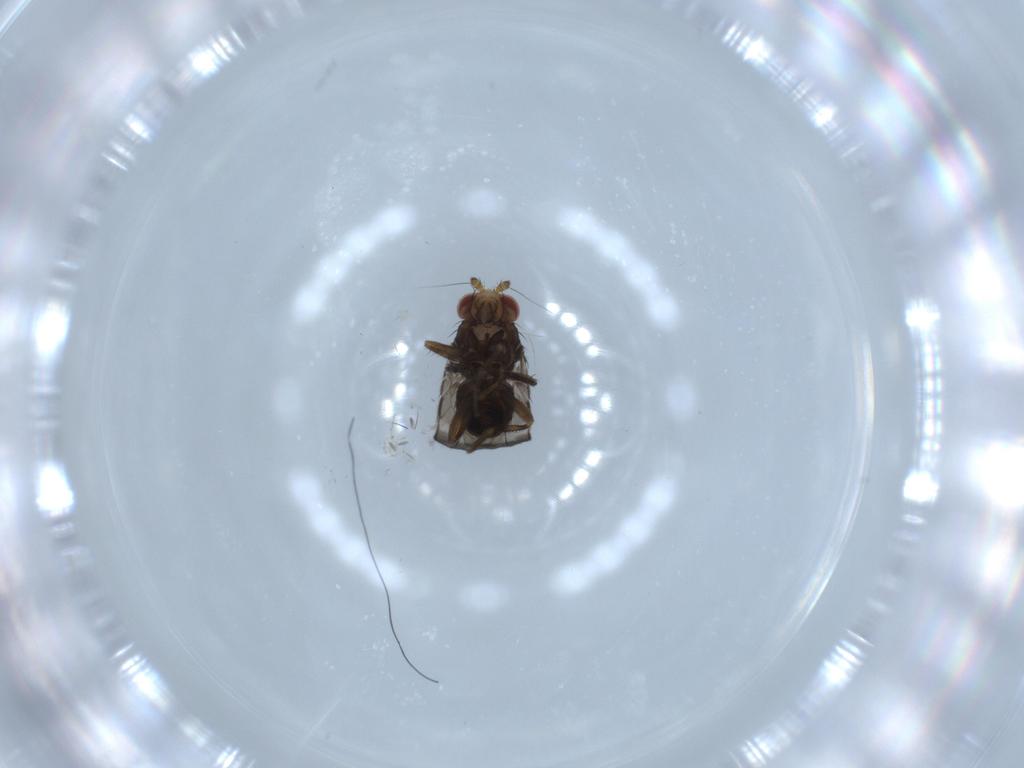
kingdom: Animalia
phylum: Arthropoda
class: Insecta
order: Diptera
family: Sphaeroceridae
